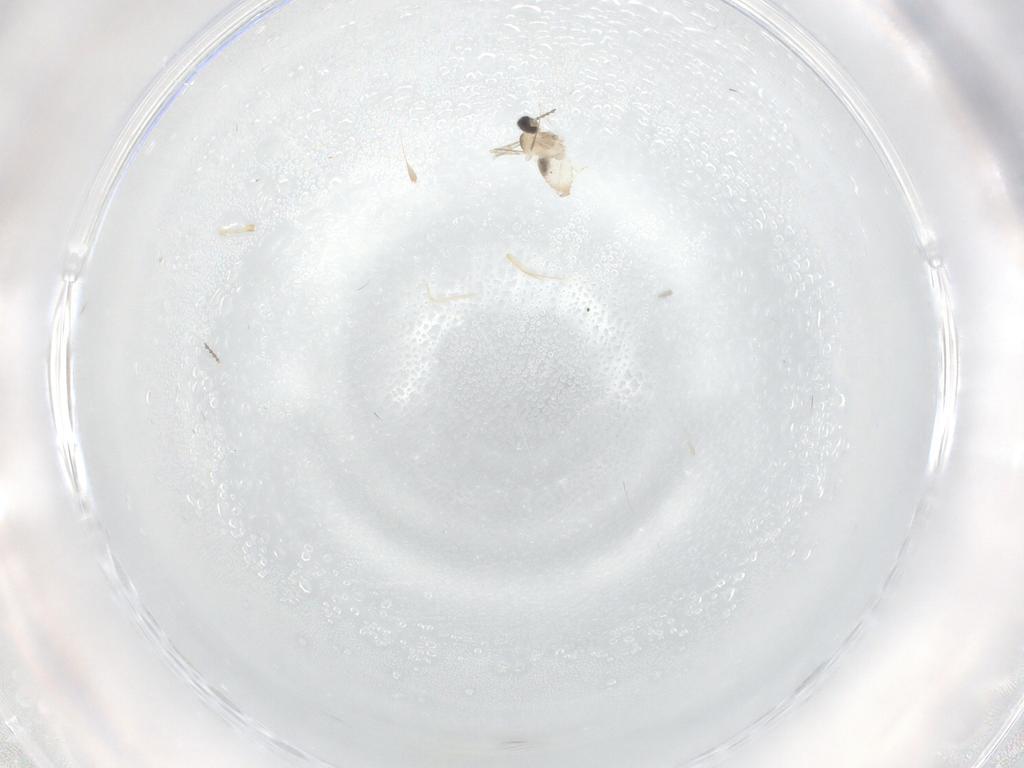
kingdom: Animalia
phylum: Arthropoda
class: Insecta
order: Diptera
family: Cecidomyiidae
